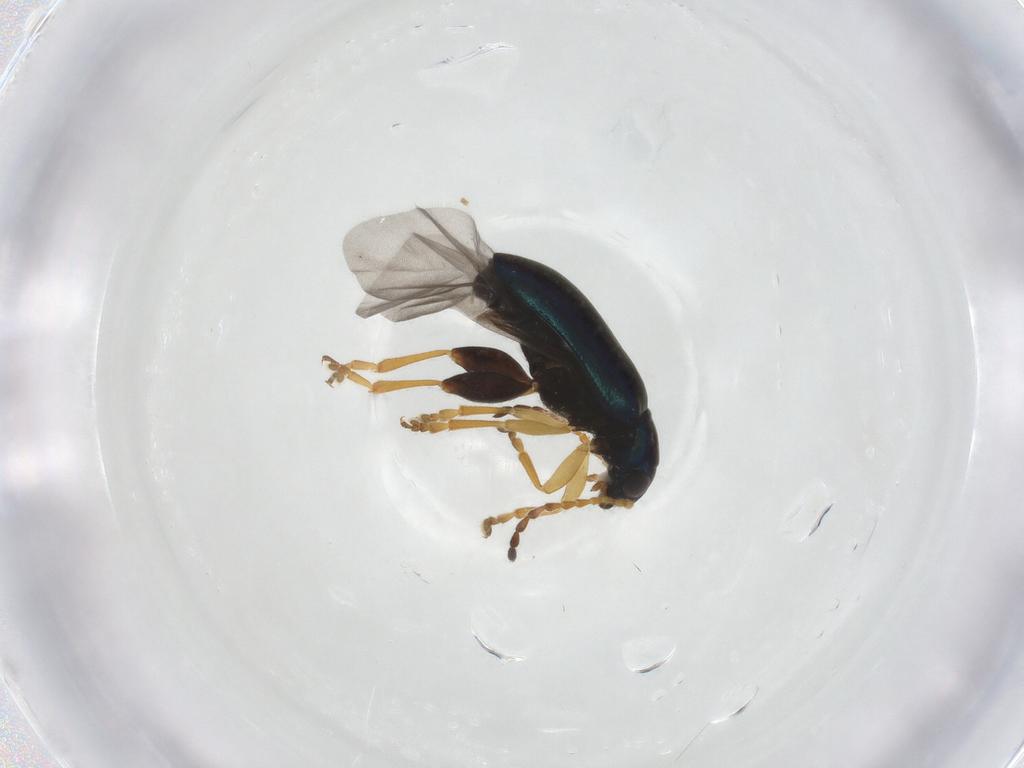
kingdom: Animalia
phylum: Arthropoda
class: Insecta
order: Coleoptera
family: Chrysomelidae
